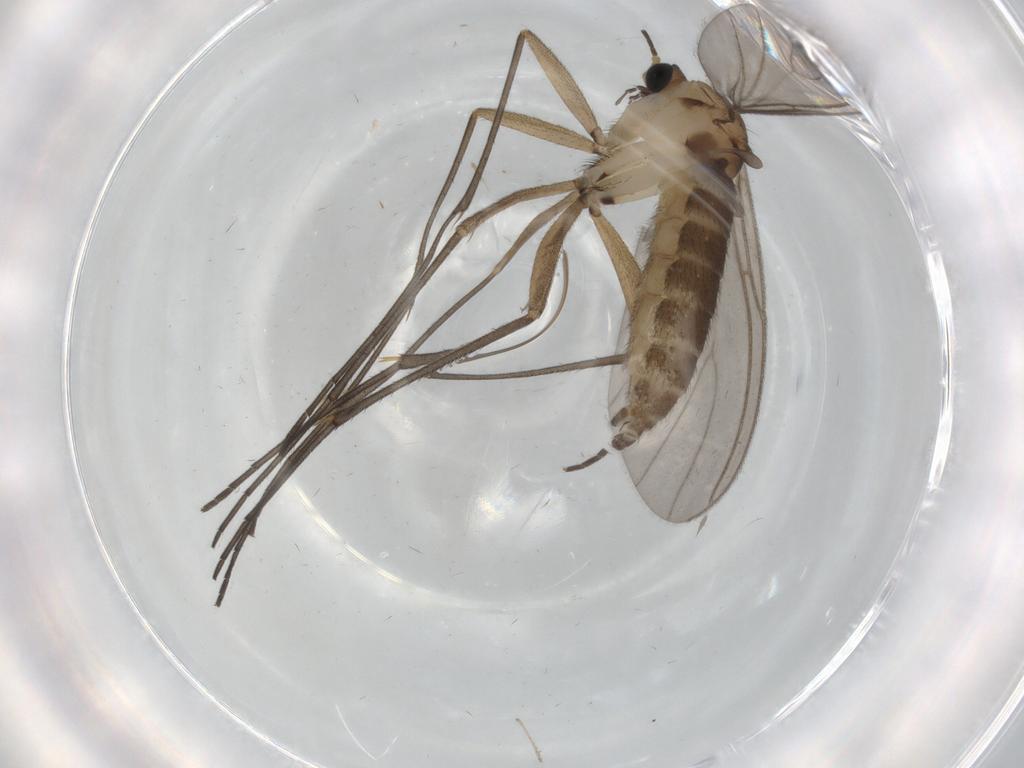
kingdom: Animalia
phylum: Arthropoda
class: Insecta
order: Diptera
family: Sciaridae
